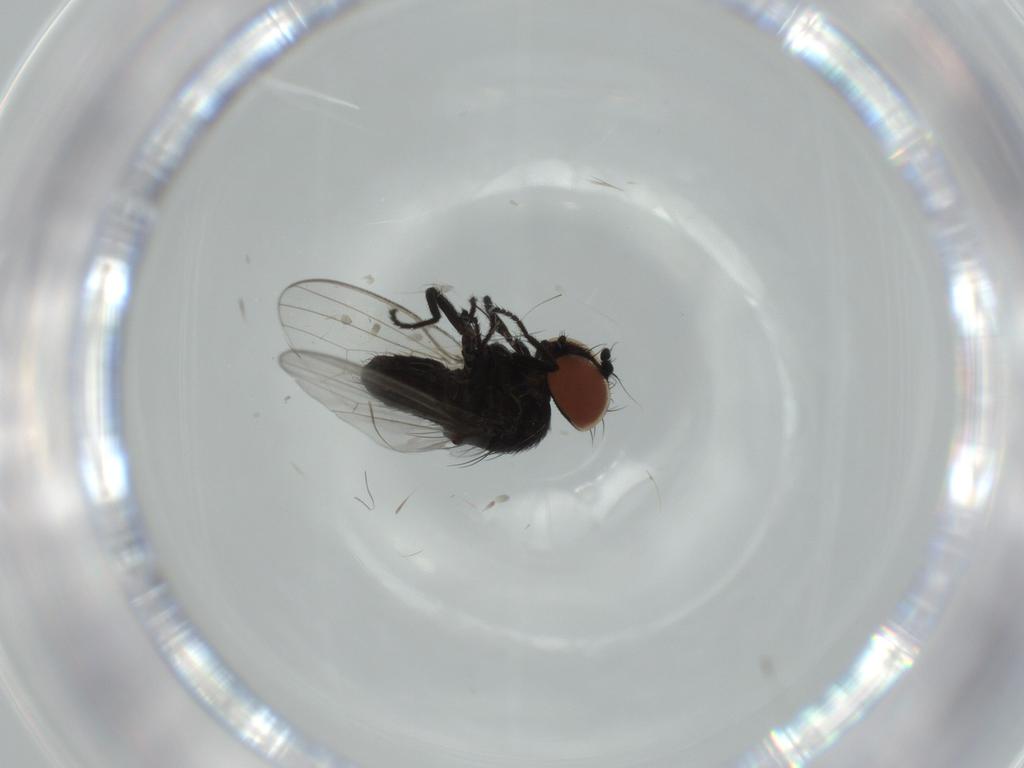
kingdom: Animalia
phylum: Arthropoda
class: Insecta
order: Diptera
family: Milichiidae
